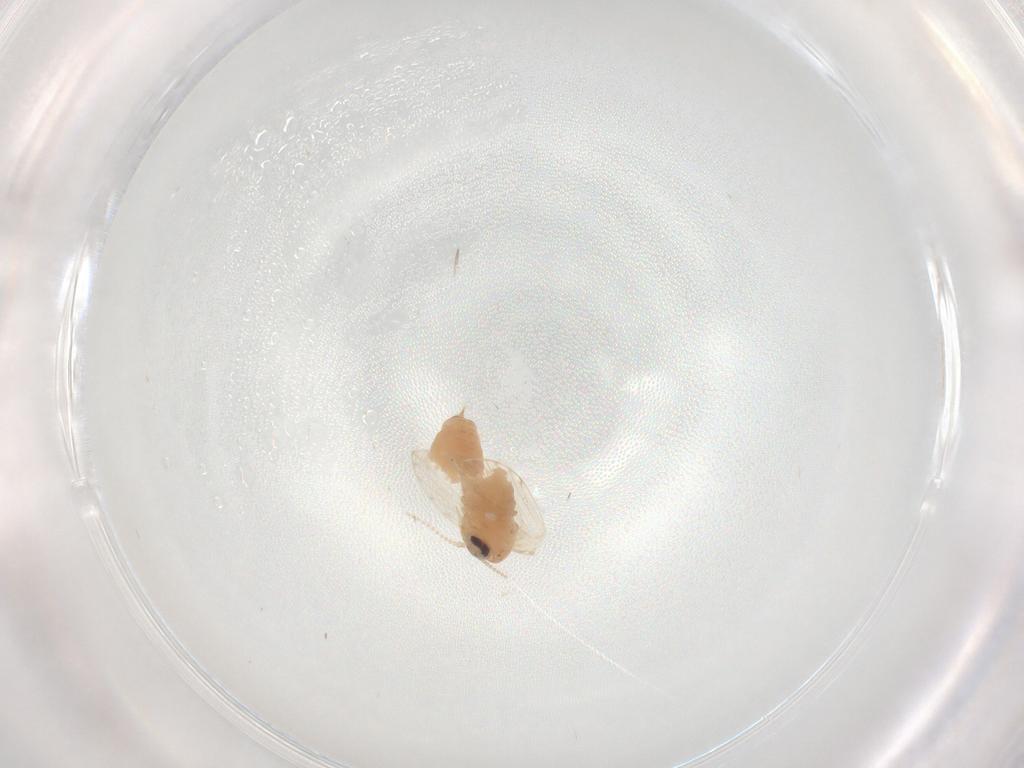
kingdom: Animalia
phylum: Arthropoda
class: Insecta
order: Diptera
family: Psychodidae
